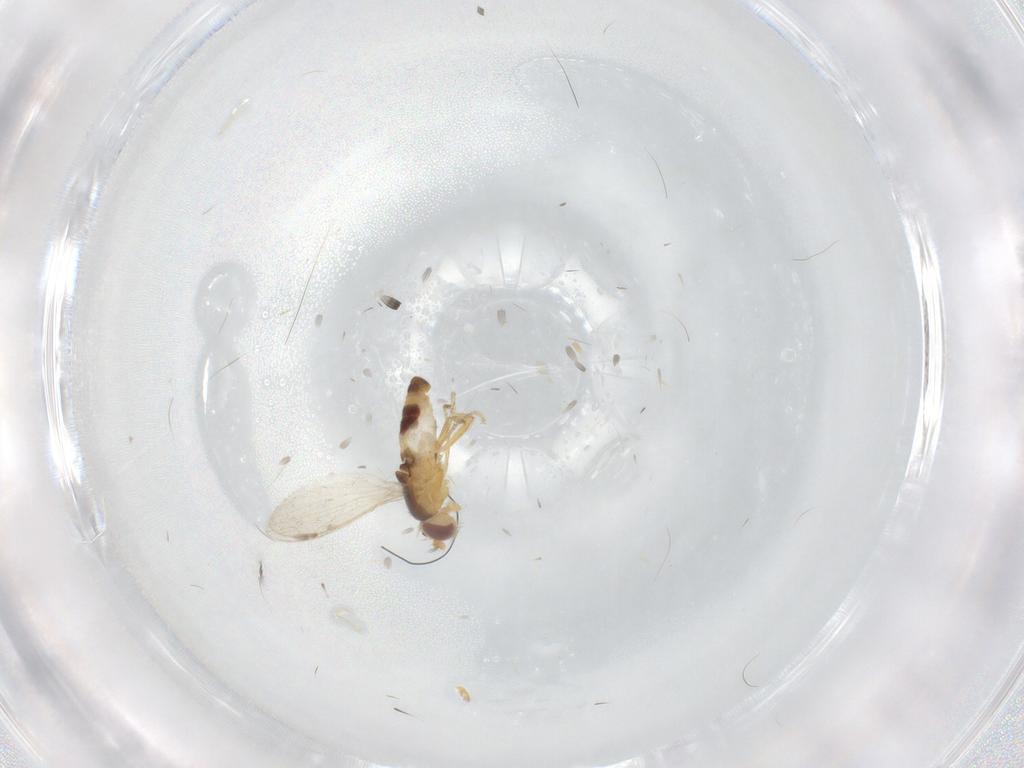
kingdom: Animalia
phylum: Arthropoda
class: Insecta
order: Diptera
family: Periscelididae
